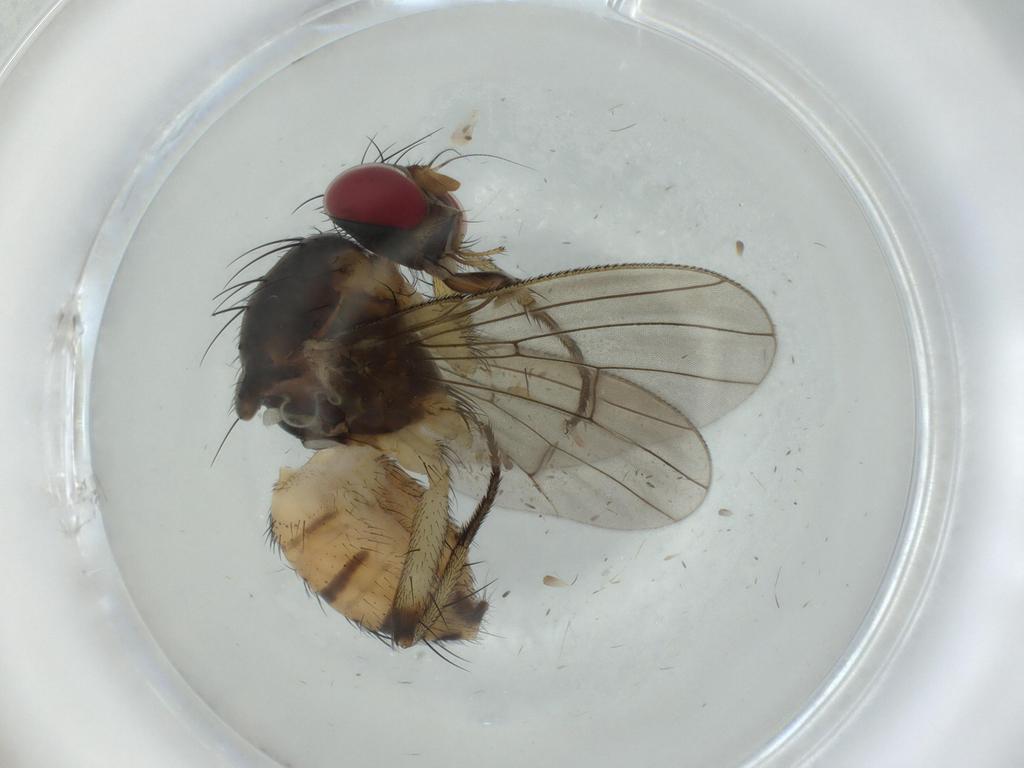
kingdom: Animalia
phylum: Arthropoda
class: Insecta
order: Diptera
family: Muscidae
